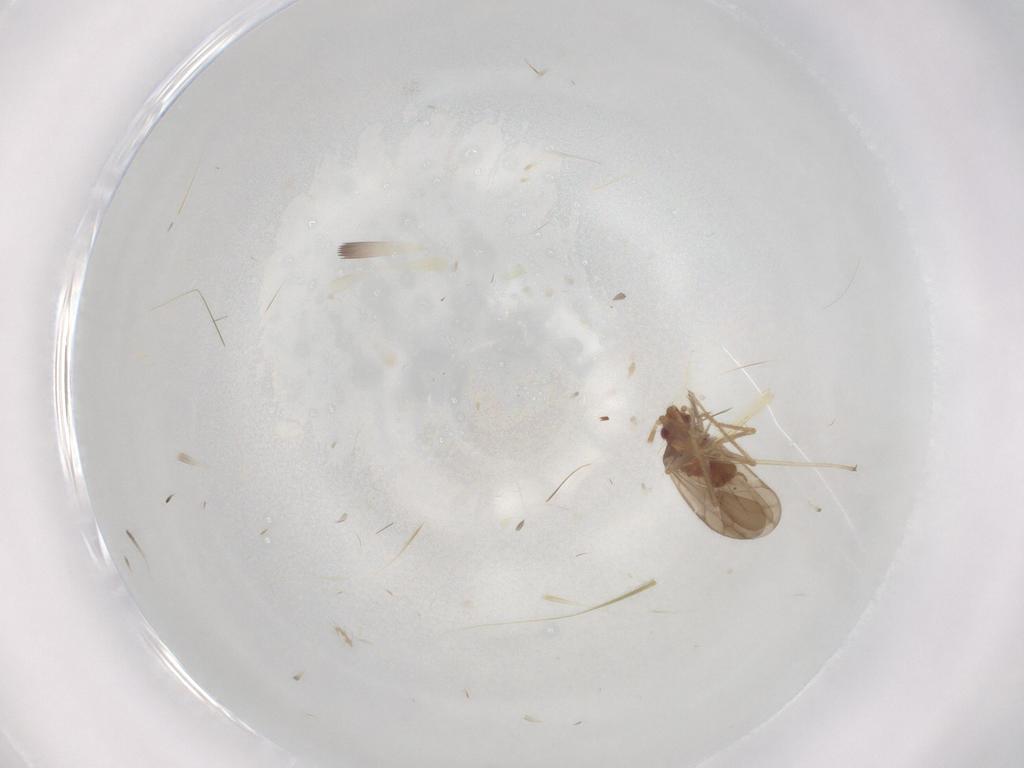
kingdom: Animalia
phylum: Arthropoda
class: Insecta
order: Hemiptera
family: Ceratocombidae
